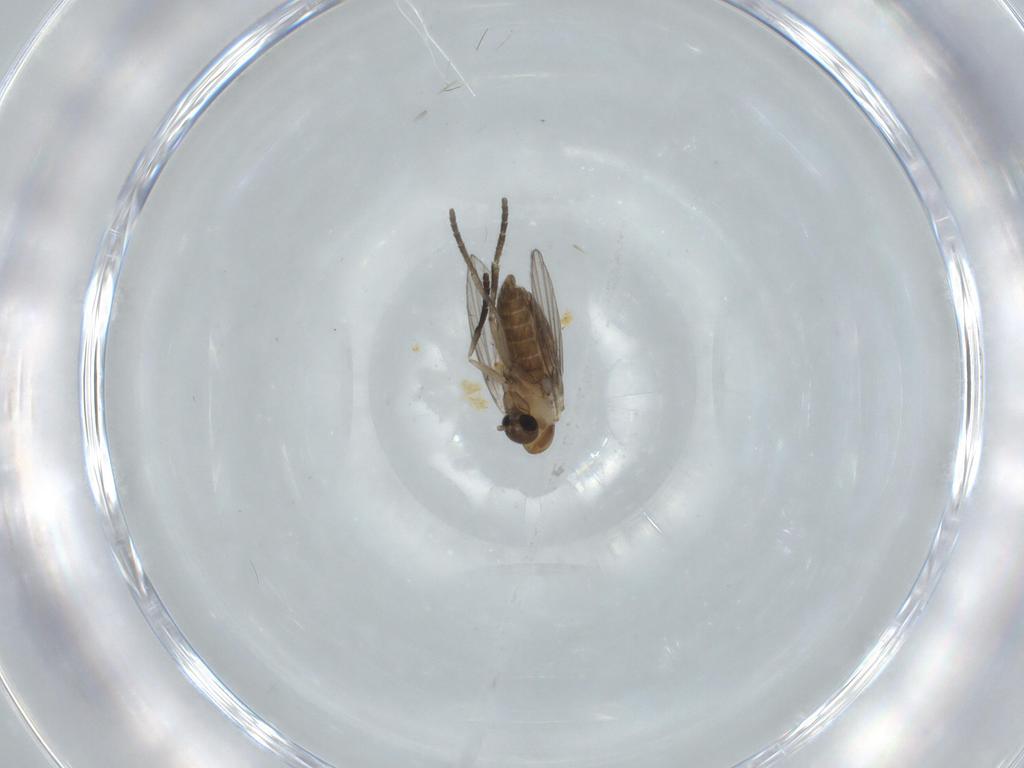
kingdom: Animalia
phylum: Arthropoda
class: Insecta
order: Diptera
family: Psychodidae
